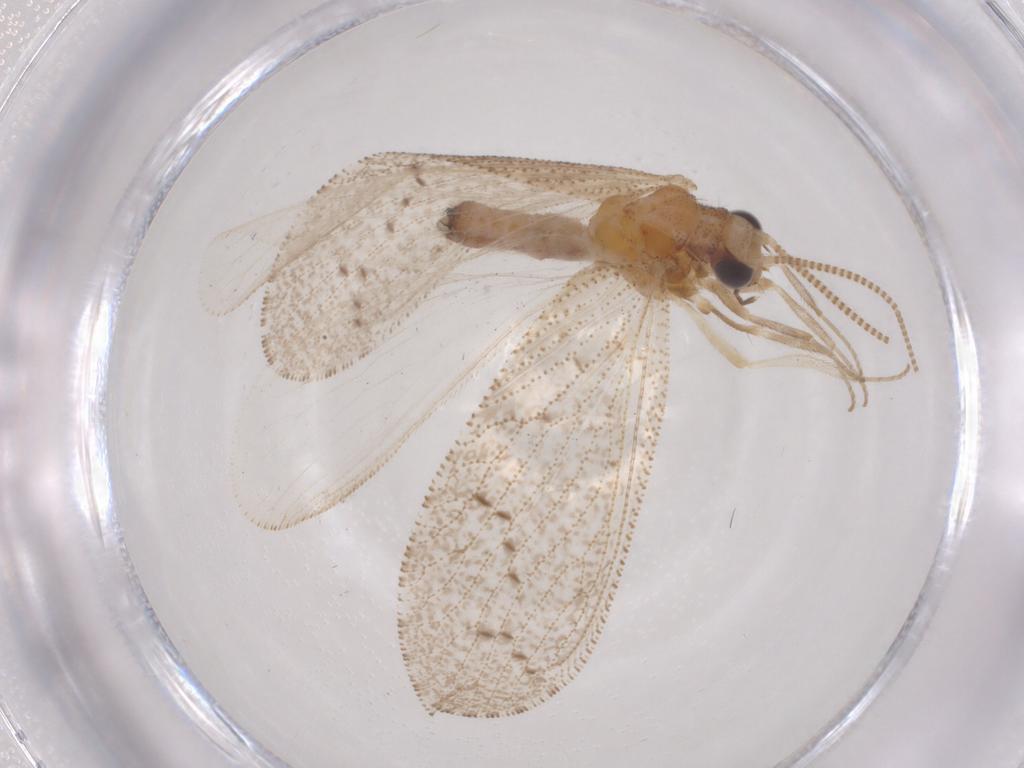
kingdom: Animalia
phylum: Arthropoda
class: Insecta
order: Neuroptera
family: Hemerobiidae
